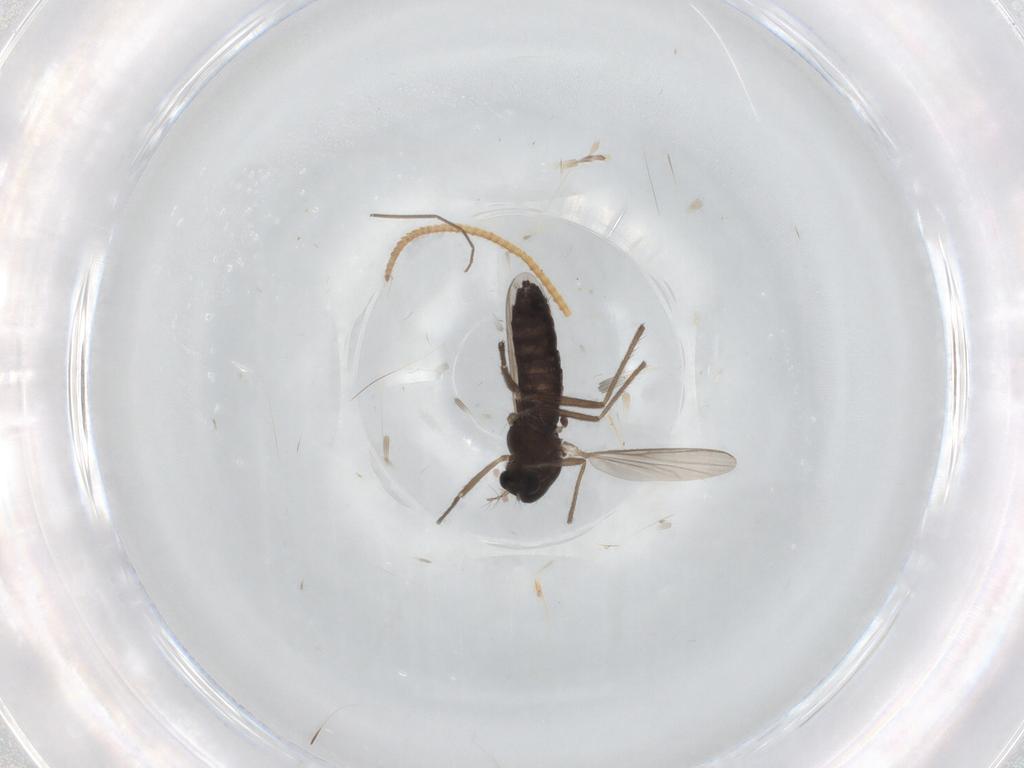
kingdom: Animalia
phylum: Arthropoda
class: Insecta
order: Diptera
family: Chironomidae
